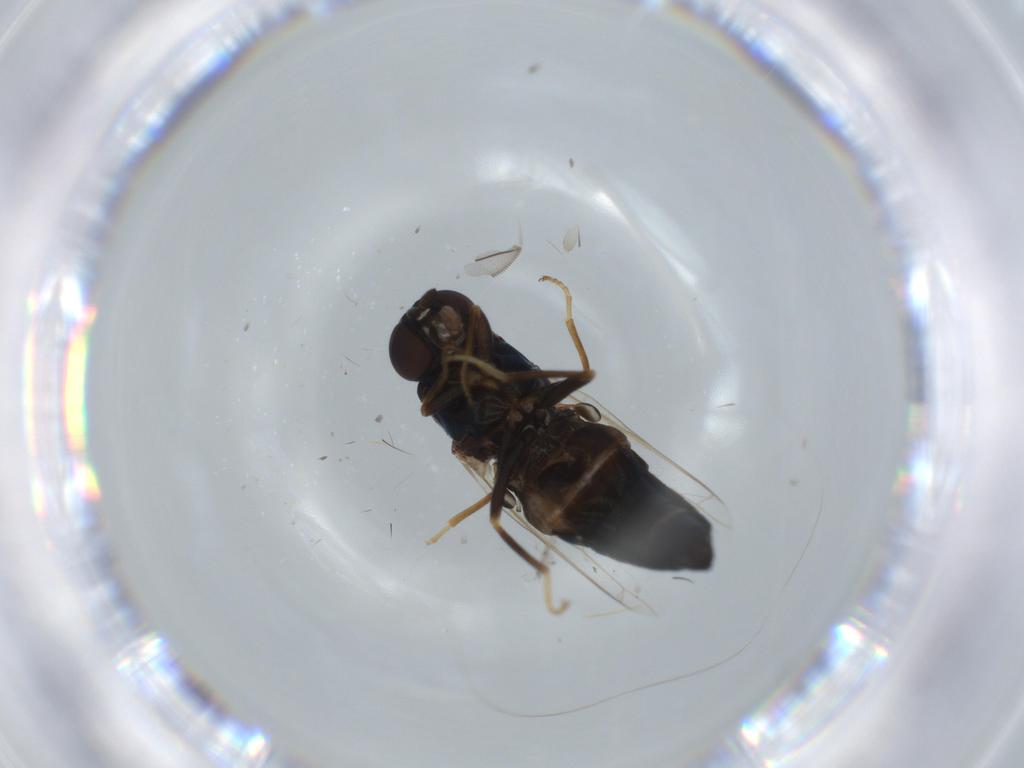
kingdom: Animalia
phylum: Arthropoda
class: Insecta
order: Diptera
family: Scenopinidae
